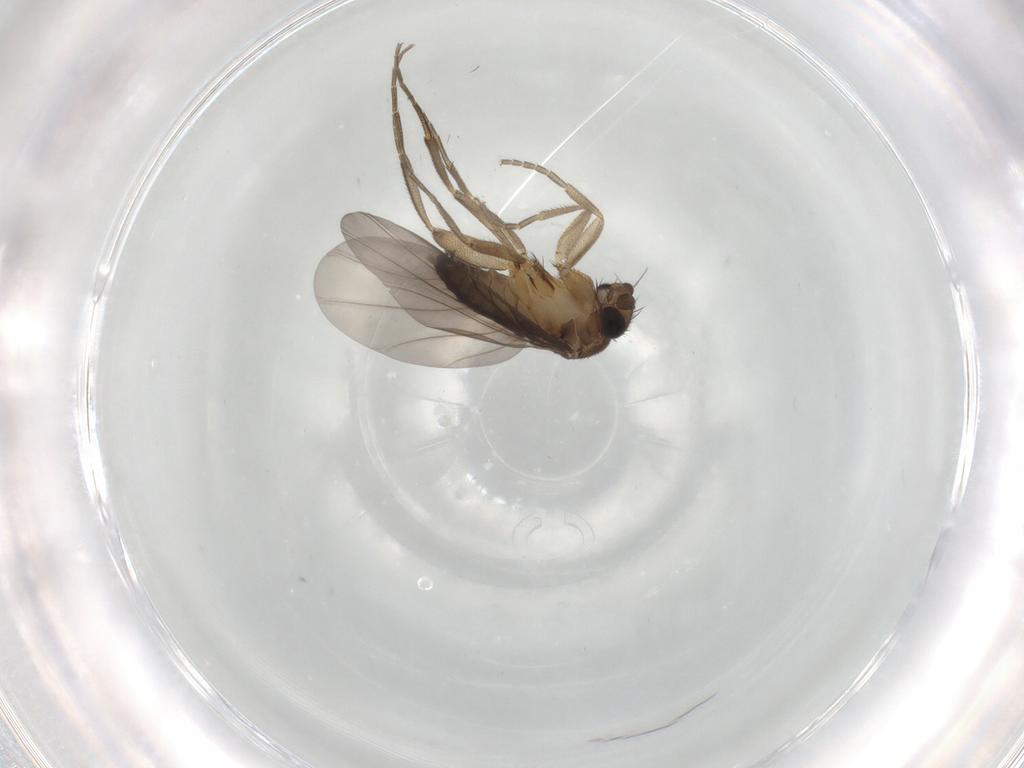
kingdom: Animalia
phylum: Arthropoda
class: Insecta
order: Diptera
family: Phoridae
